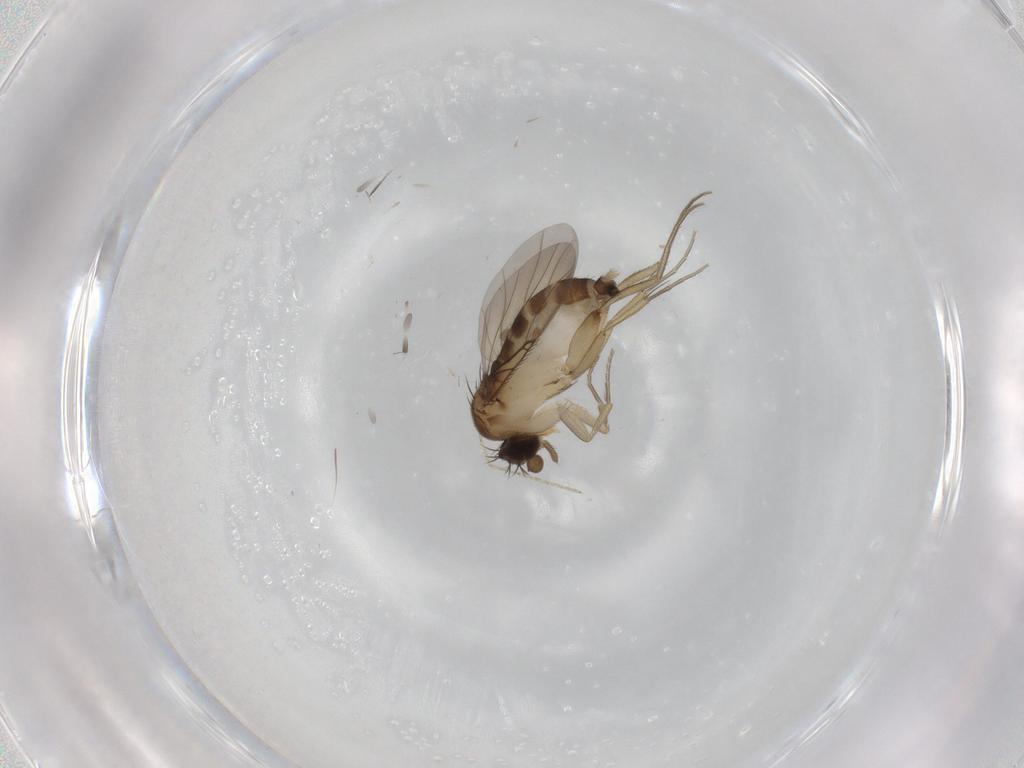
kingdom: Animalia
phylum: Arthropoda
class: Insecta
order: Diptera
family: Phoridae
